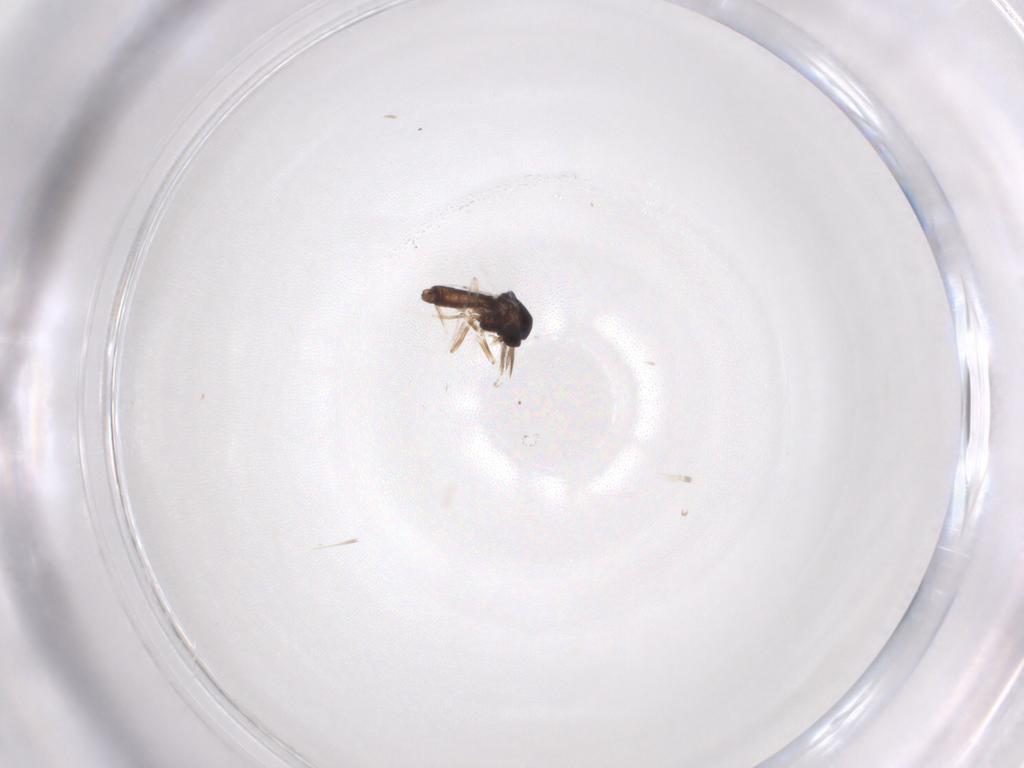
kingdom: Animalia
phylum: Arthropoda
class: Insecta
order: Diptera
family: Ceratopogonidae
